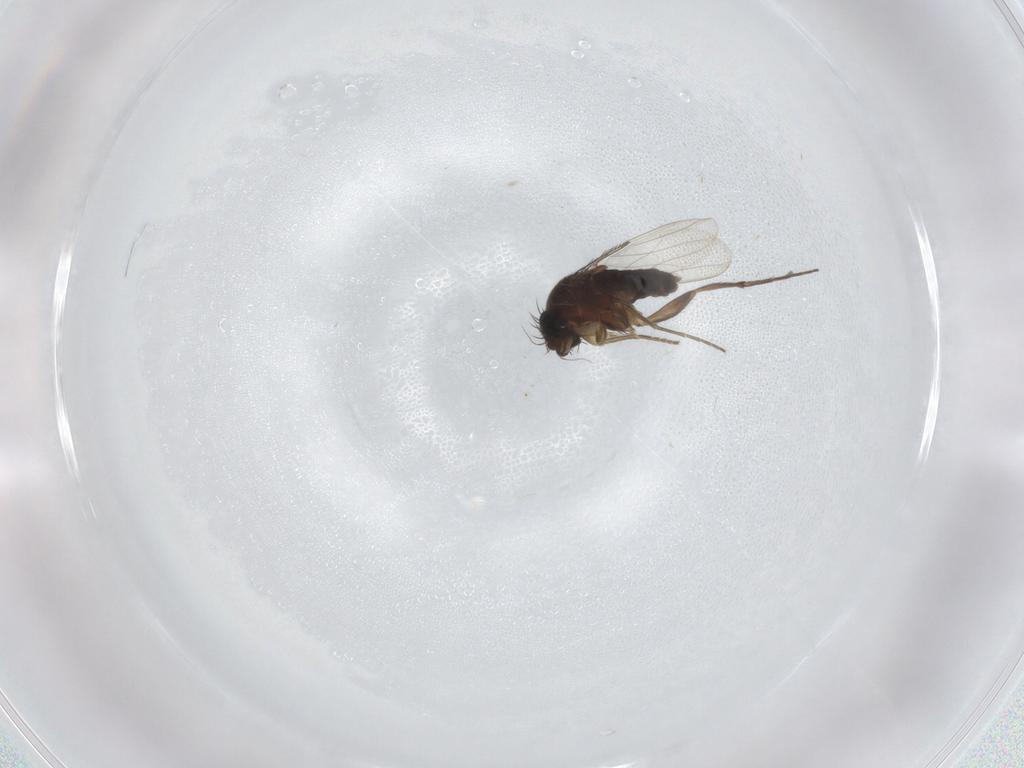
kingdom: Animalia
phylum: Arthropoda
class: Insecta
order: Diptera
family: Phoridae
